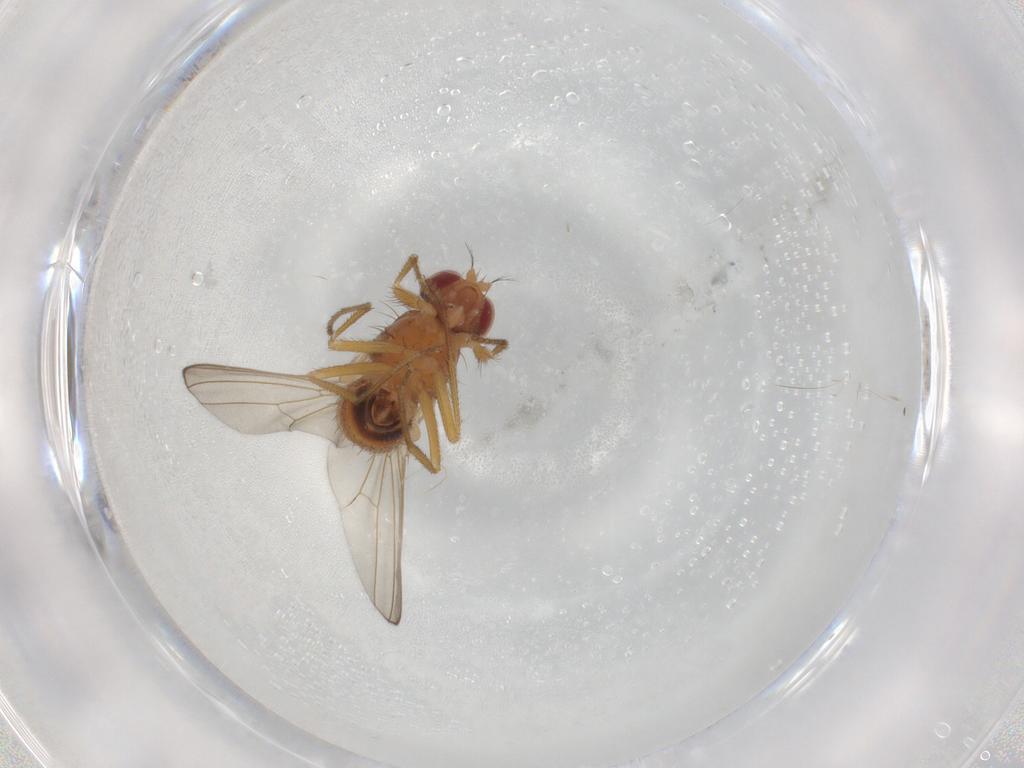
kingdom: Animalia
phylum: Arthropoda
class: Insecta
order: Diptera
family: Drosophilidae
